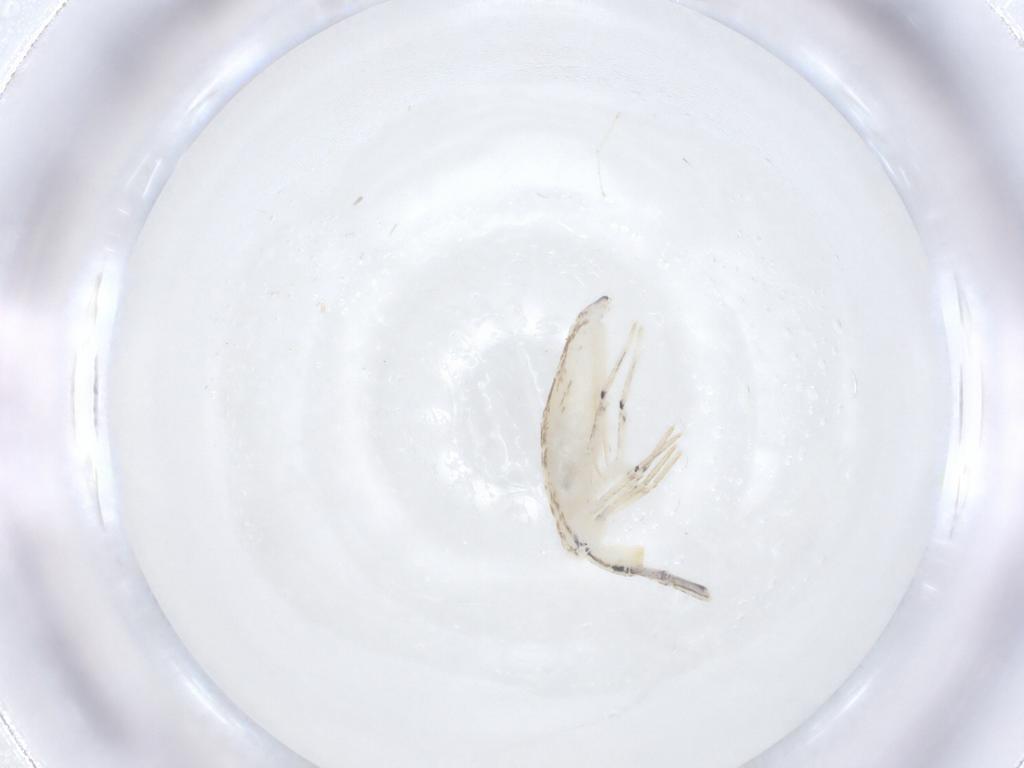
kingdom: Animalia
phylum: Arthropoda
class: Collembola
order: Entomobryomorpha
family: Entomobryidae
